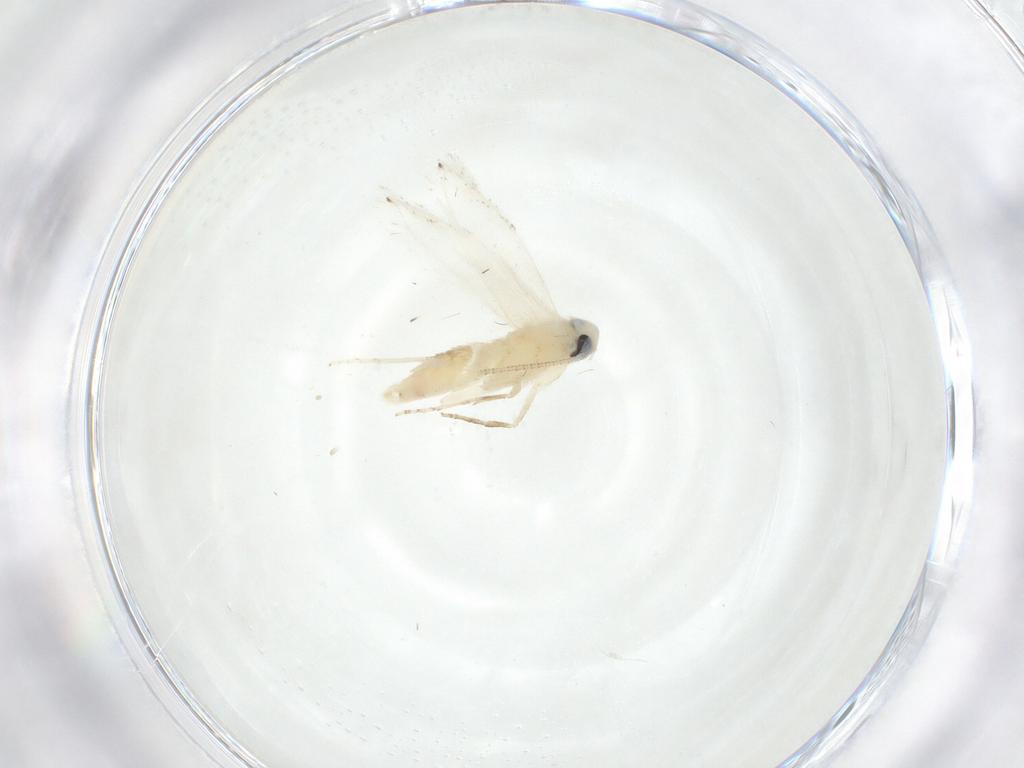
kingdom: Animalia
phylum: Arthropoda
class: Insecta
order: Lepidoptera
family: Lyonetiidae
